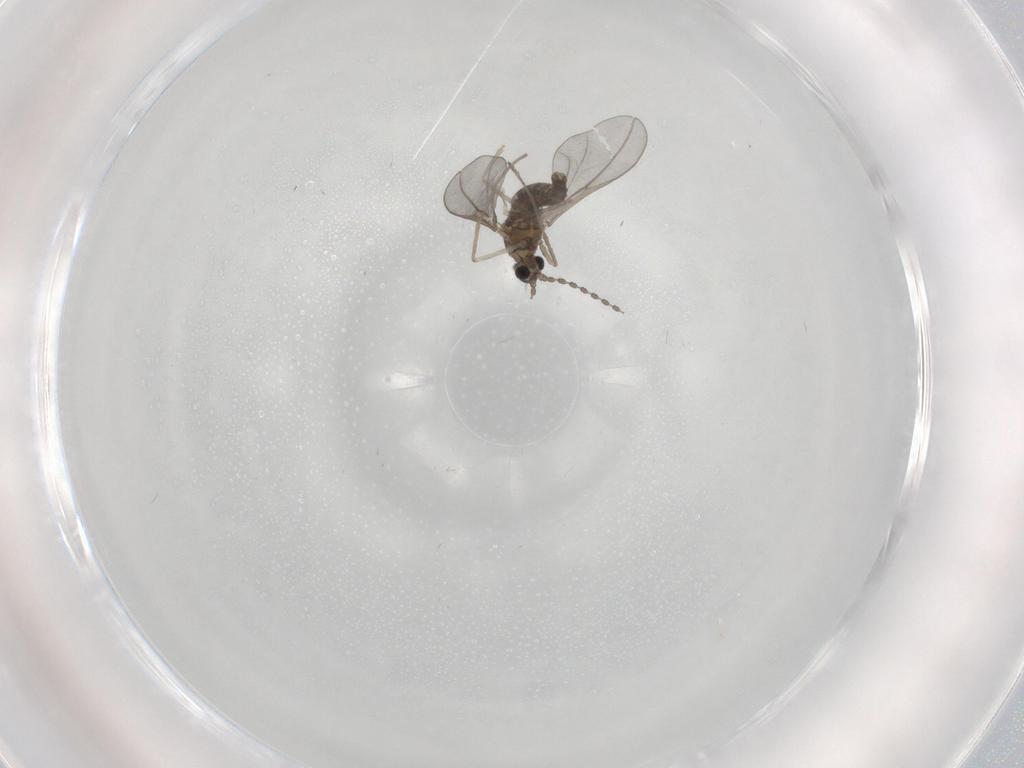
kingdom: Animalia
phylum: Arthropoda
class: Insecta
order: Diptera
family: Cecidomyiidae
